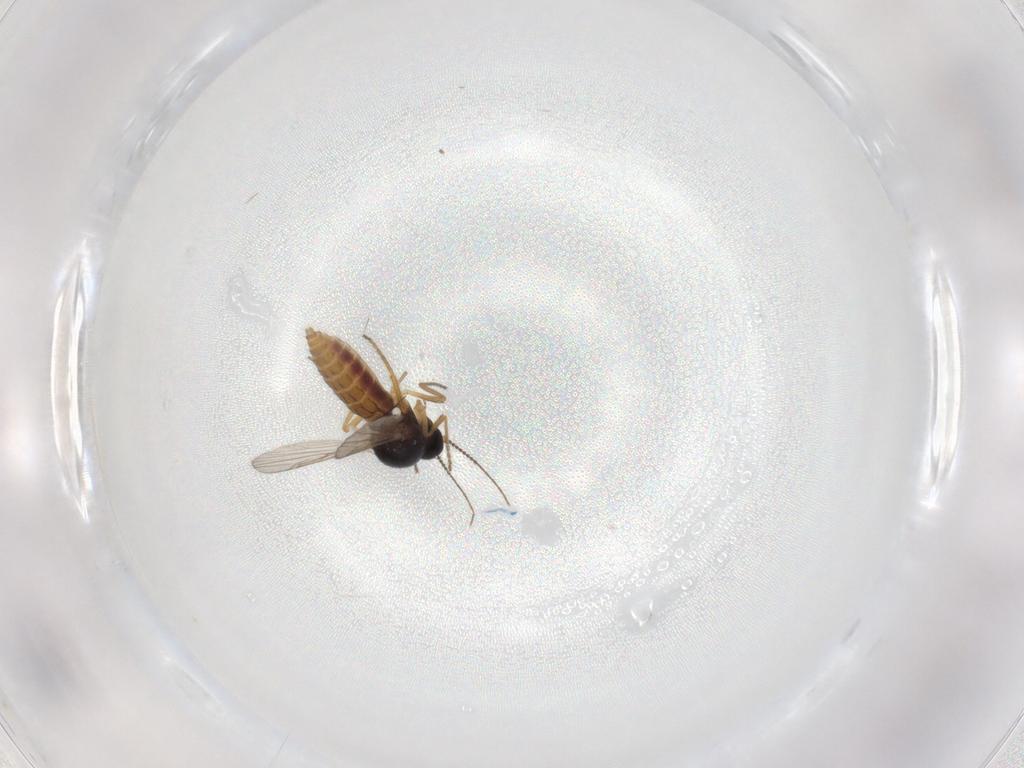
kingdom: Animalia
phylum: Arthropoda
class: Insecta
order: Diptera
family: Ceratopogonidae
